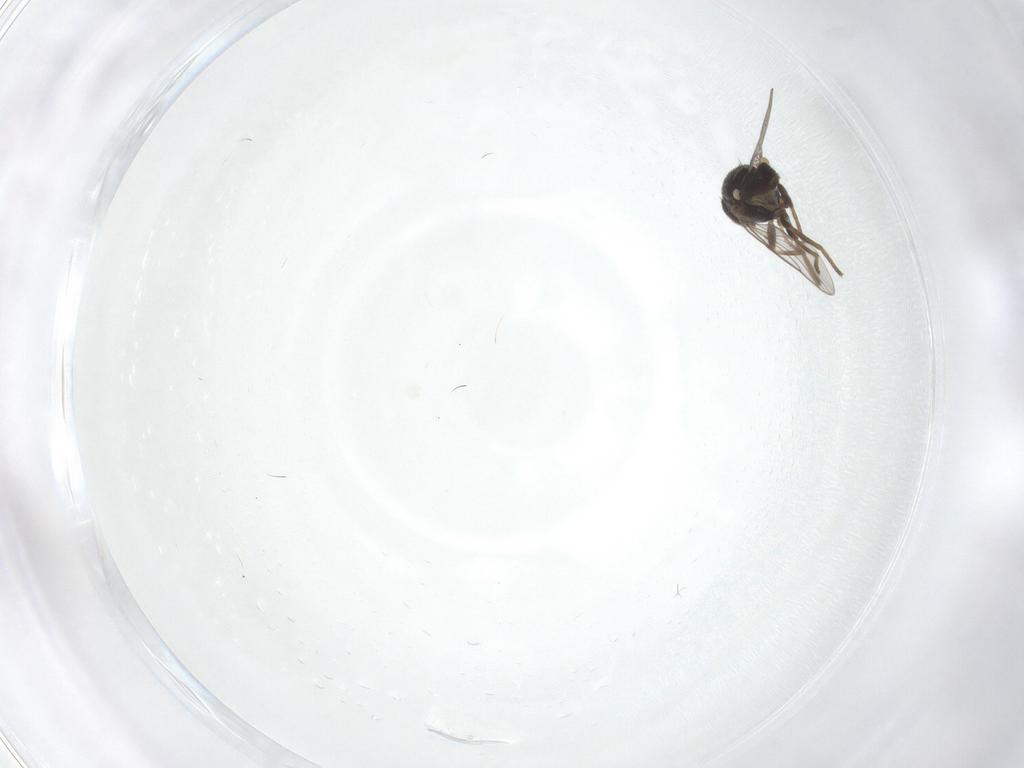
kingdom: Animalia
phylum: Arthropoda
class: Insecta
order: Diptera
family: Chloropidae
